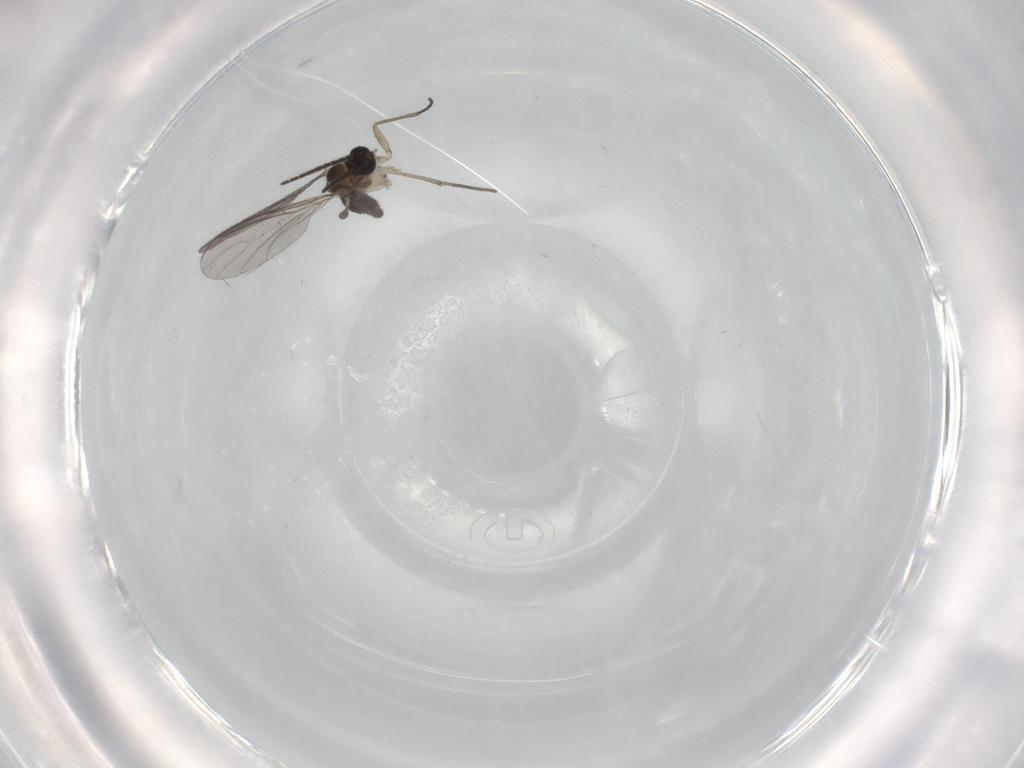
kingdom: Animalia
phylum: Arthropoda
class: Insecta
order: Diptera
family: Sciaridae
